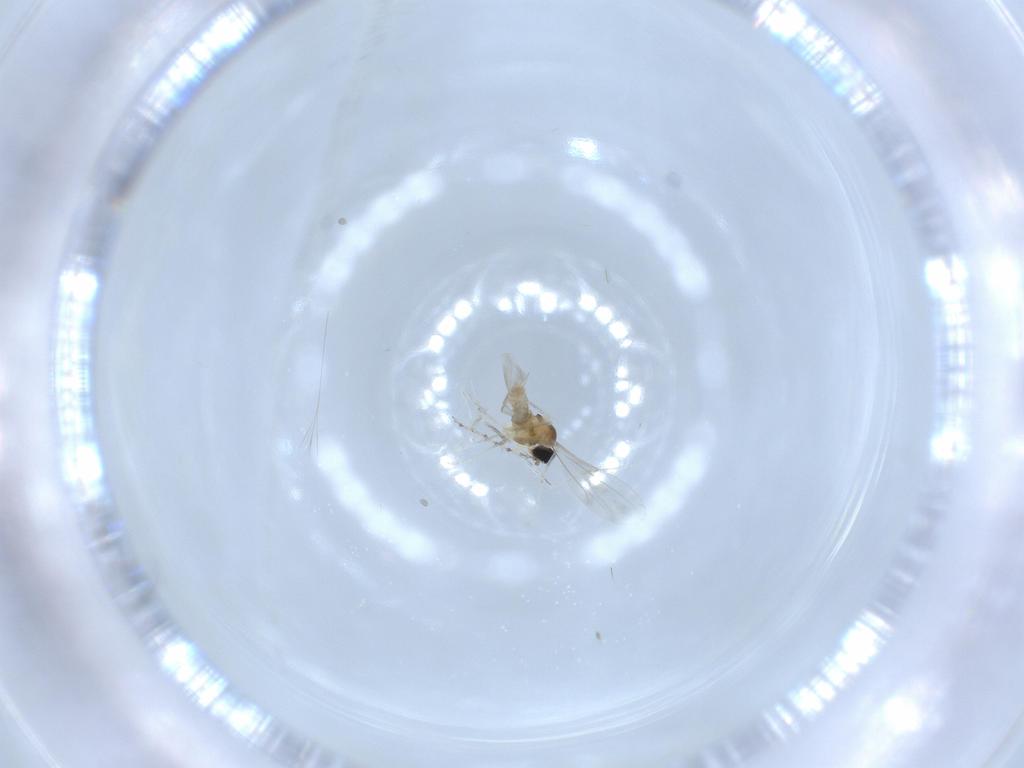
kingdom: Animalia
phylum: Arthropoda
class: Insecta
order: Diptera
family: Cecidomyiidae
